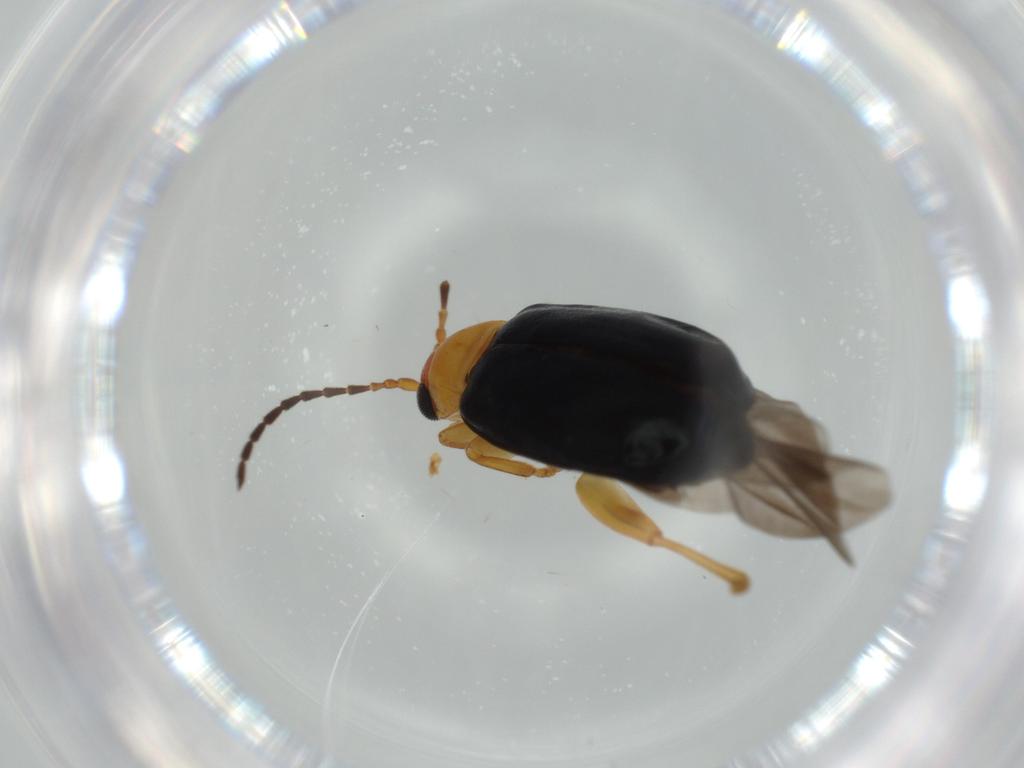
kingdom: Animalia
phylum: Arthropoda
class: Insecta
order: Coleoptera
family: Chrysomelidae
